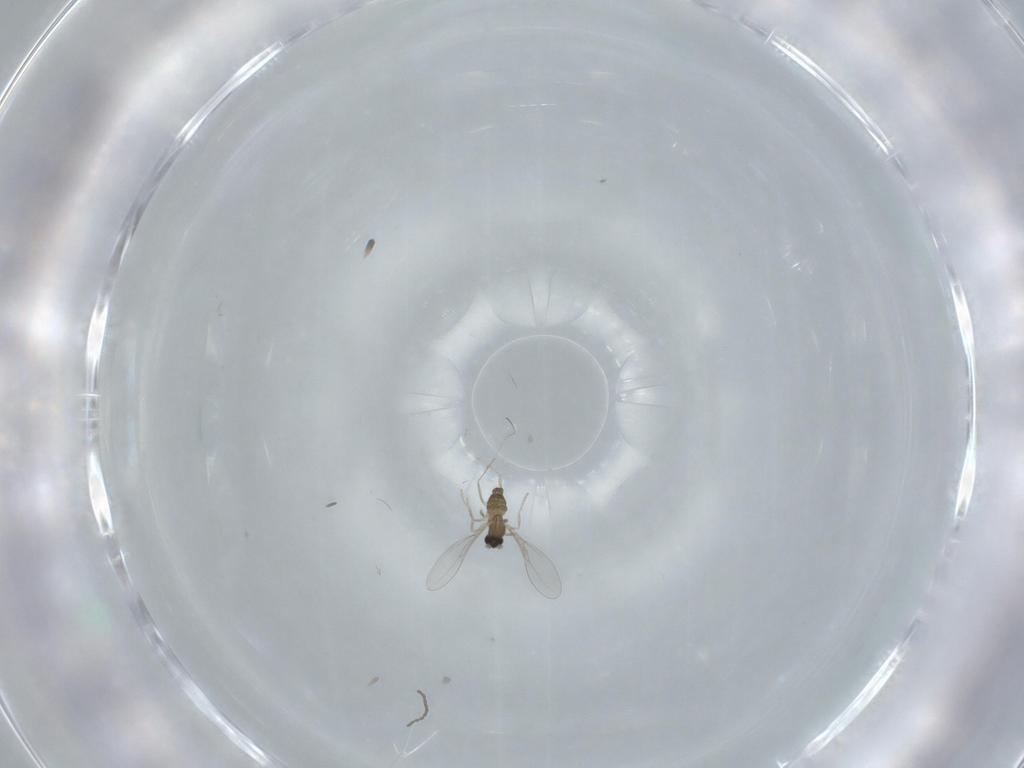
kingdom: Animalia
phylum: Arthropoda
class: Insecta
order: Diptera
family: Cecidomyiidae
